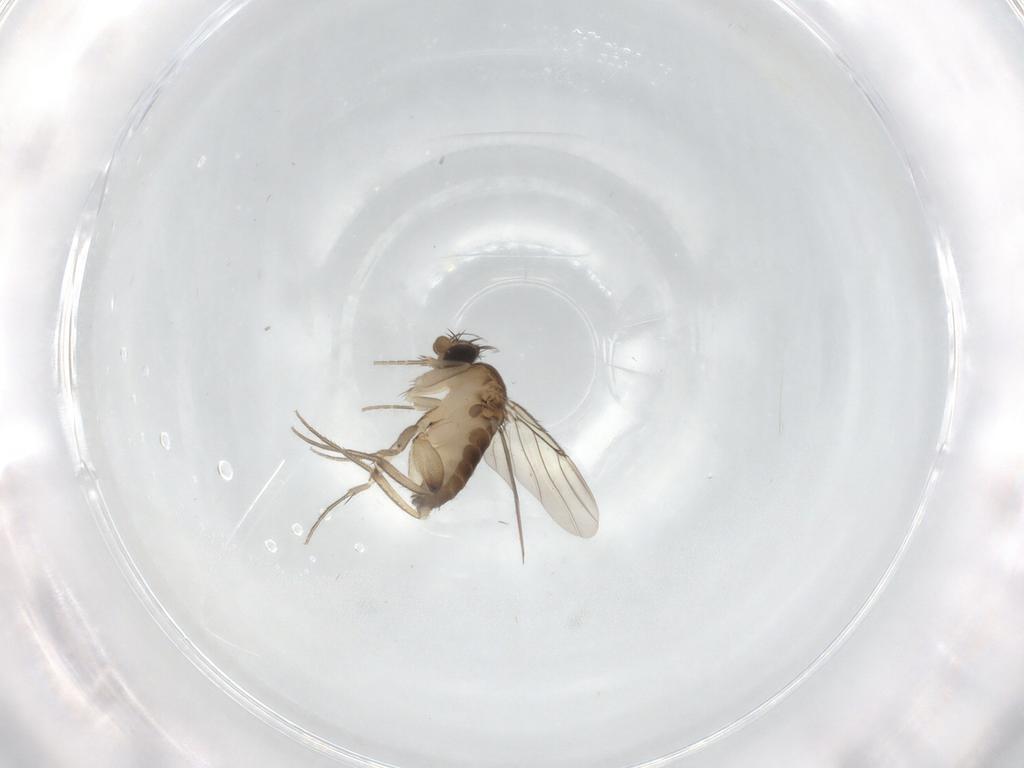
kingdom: Animalia
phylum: Arthropoda
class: Insecta
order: Diptera
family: Phoridae
